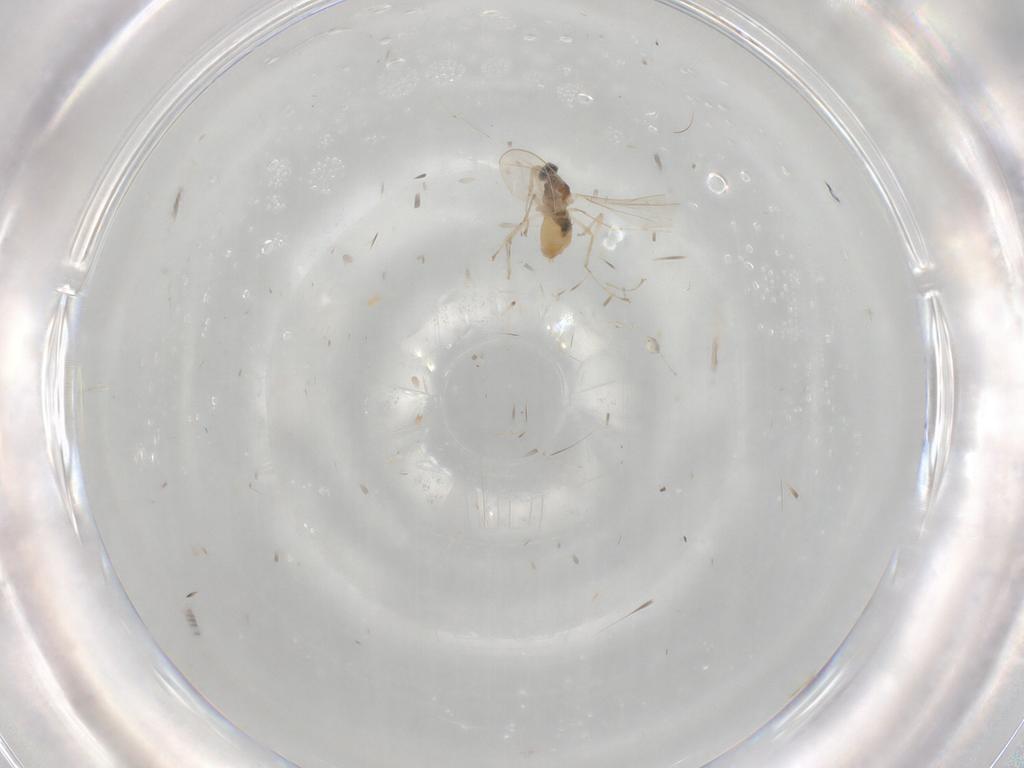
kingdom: Animalia
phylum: Arthropoda
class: Insecta
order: Diptera
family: Cecidomyiidae
